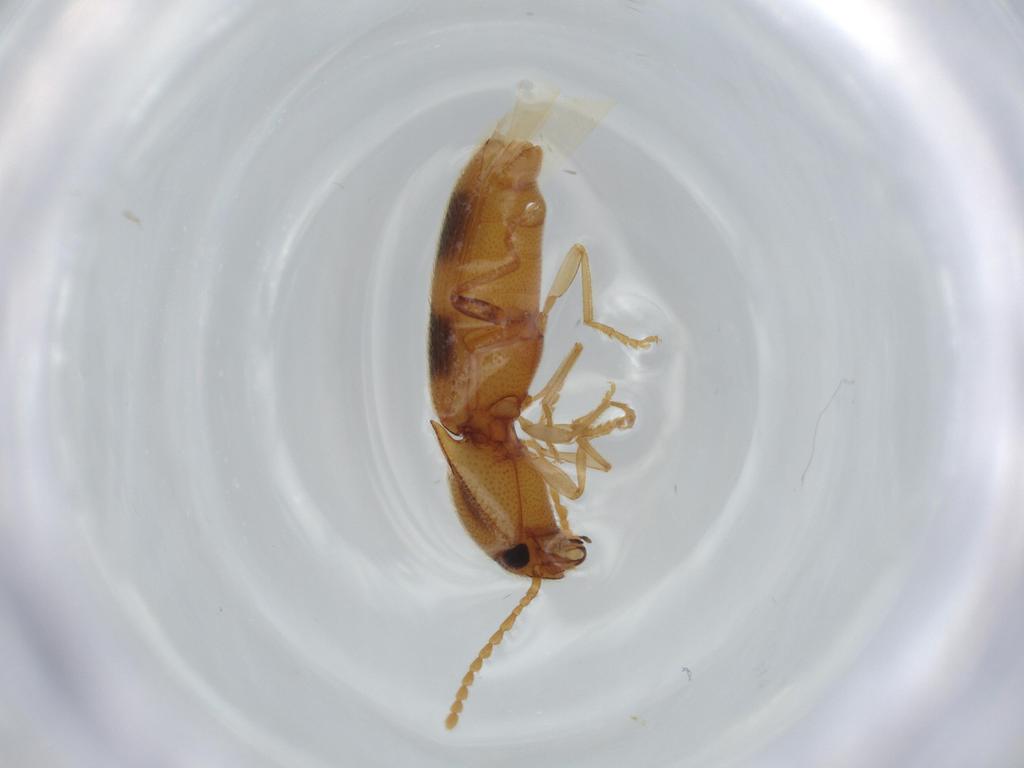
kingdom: Animalia
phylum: Arthropoda
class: Insecta
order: Coleoptera
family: Elateridae
